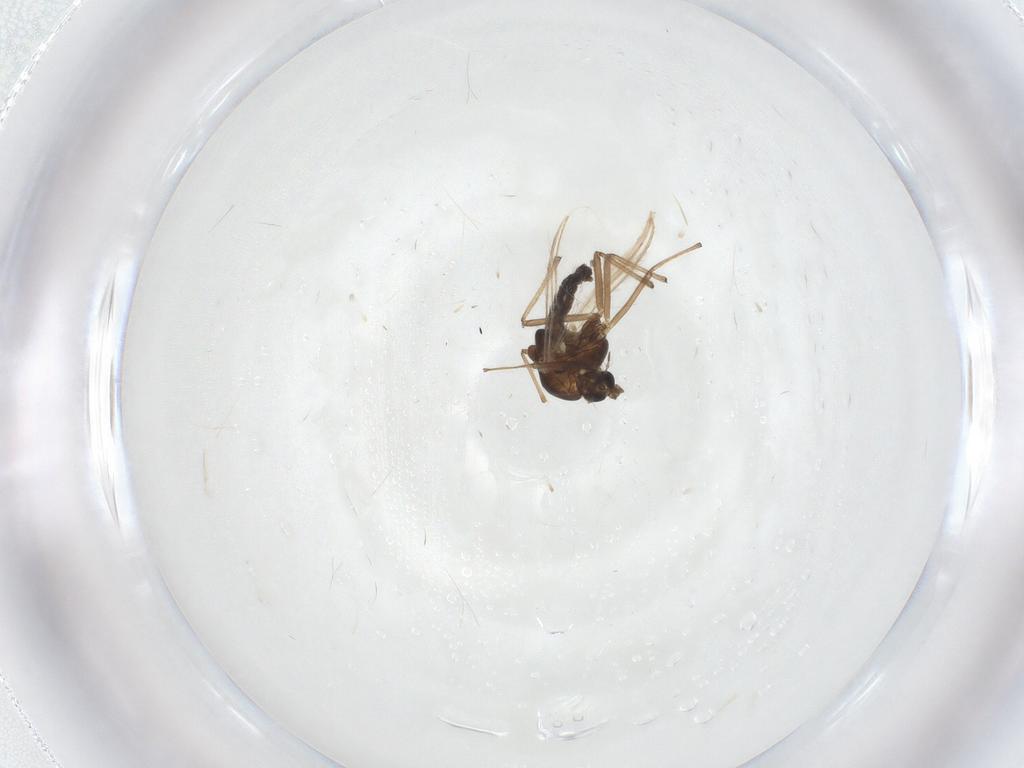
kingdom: Animalia
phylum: Arthropoda
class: Insecta
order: Diptera
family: Chironomidae
